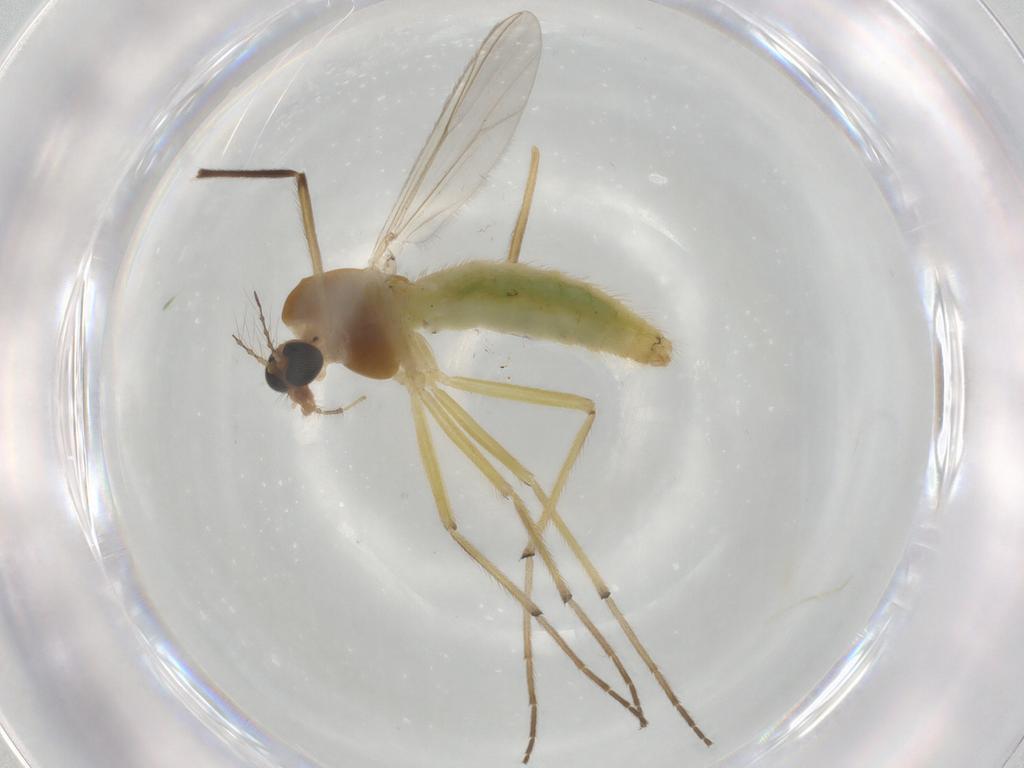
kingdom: Animalia
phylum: Arthropoda
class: Insecta
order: Diptera
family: Chironomidae
